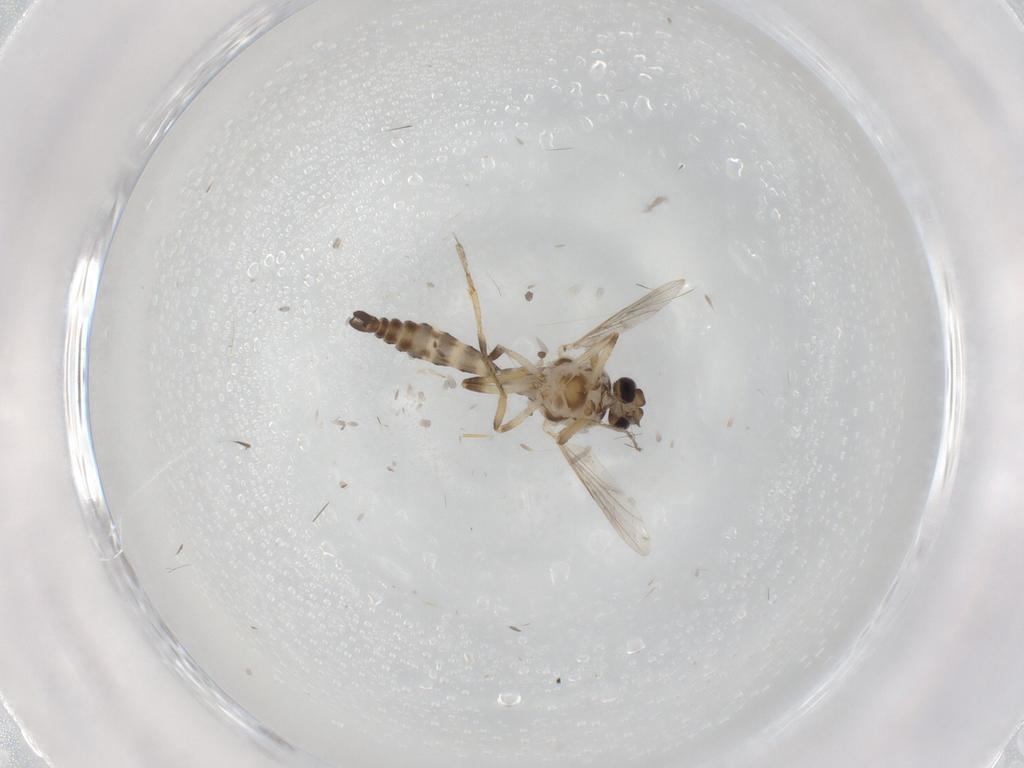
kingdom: Animalia
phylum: Arthropoda
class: Insecta
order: Diptera
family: Ceratopogonidae
